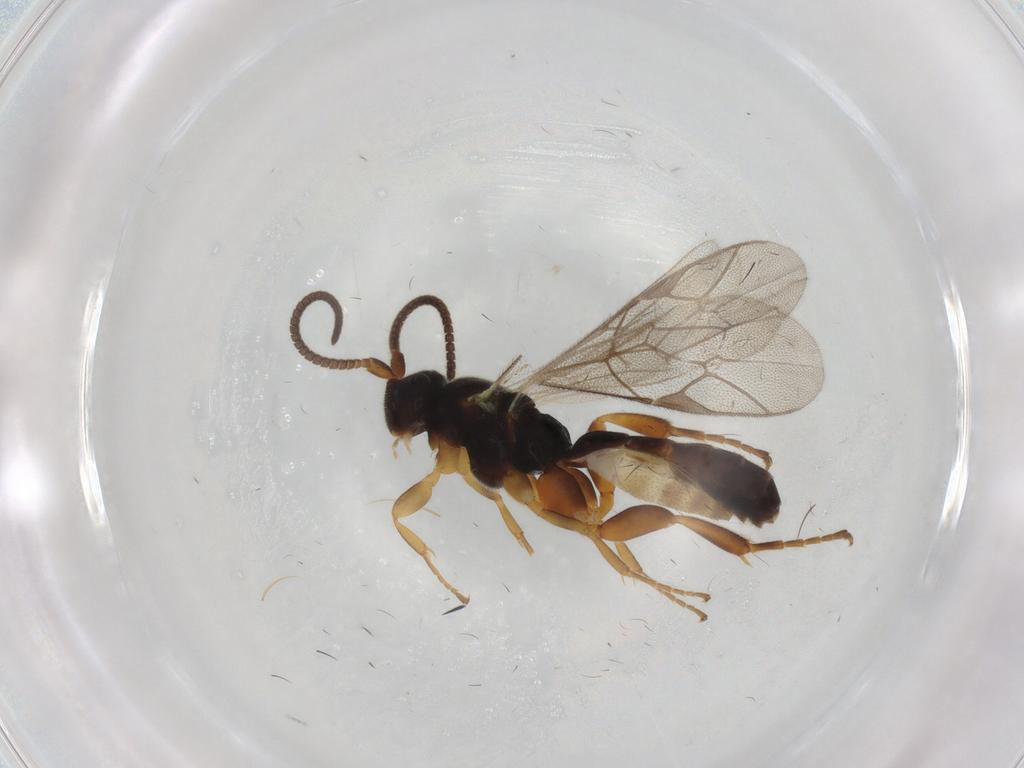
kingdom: Animalia
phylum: Arthropoda
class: Insecta
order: Hymenoptera
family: Ichneumonidae
